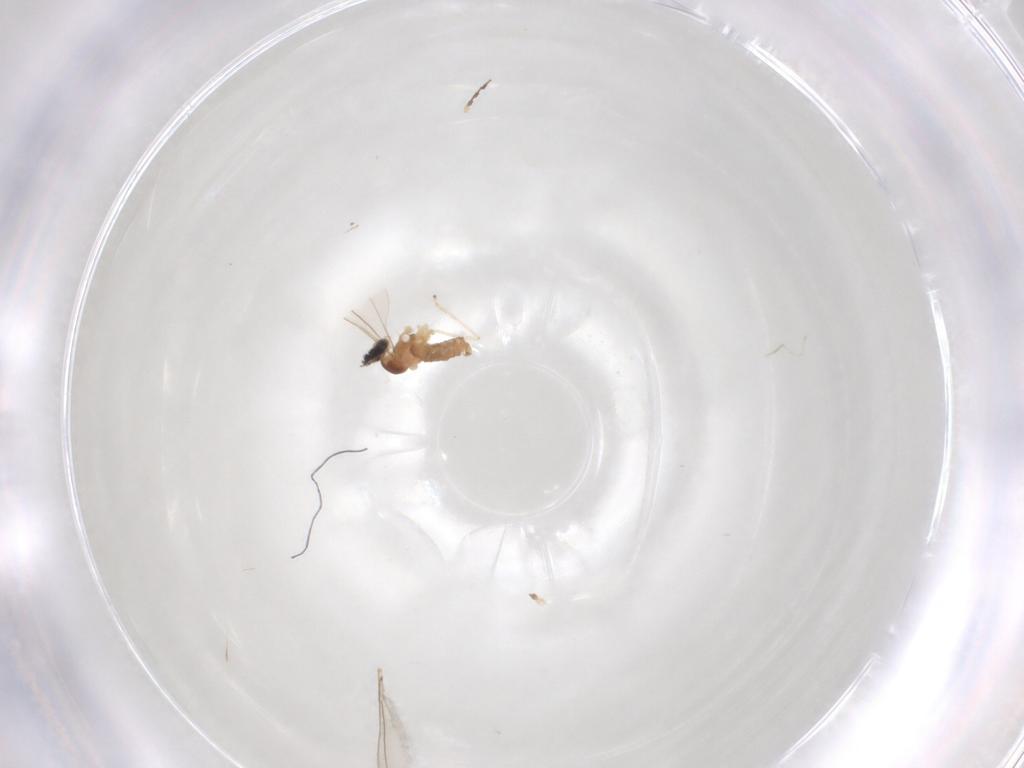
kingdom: Animalia
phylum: Arthropoda
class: Insecta
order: Diptera
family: Cecidomyiidae
